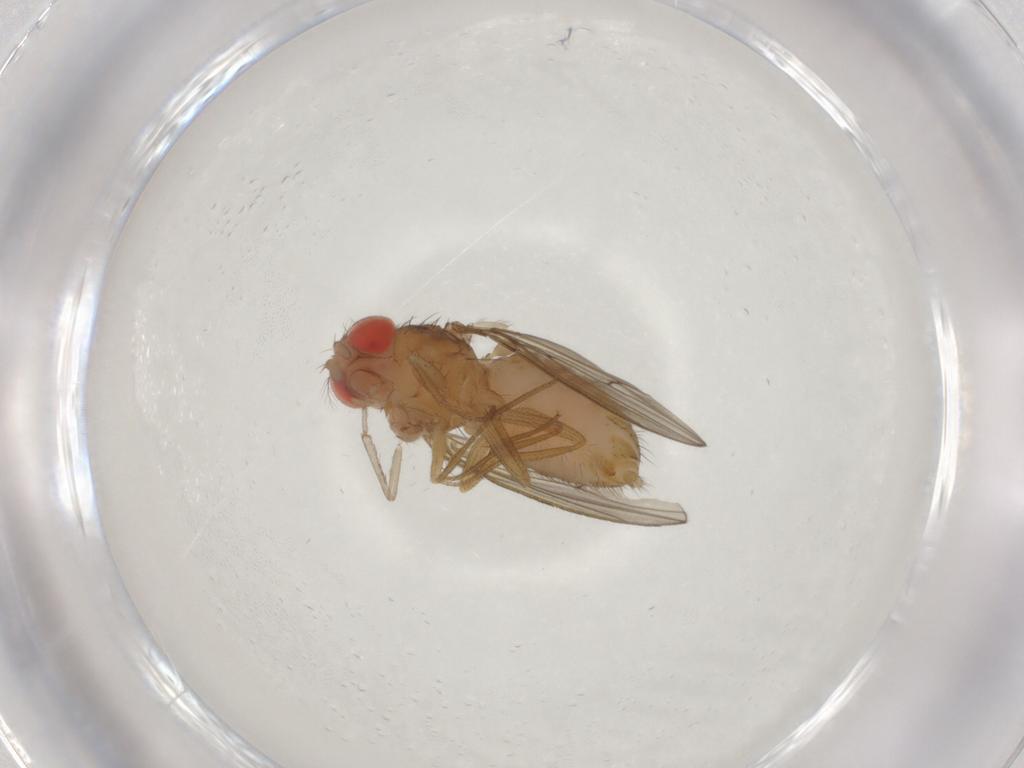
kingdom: Animalia
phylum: Arthropoda
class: Insecta
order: Diptera
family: Drosophilidae
